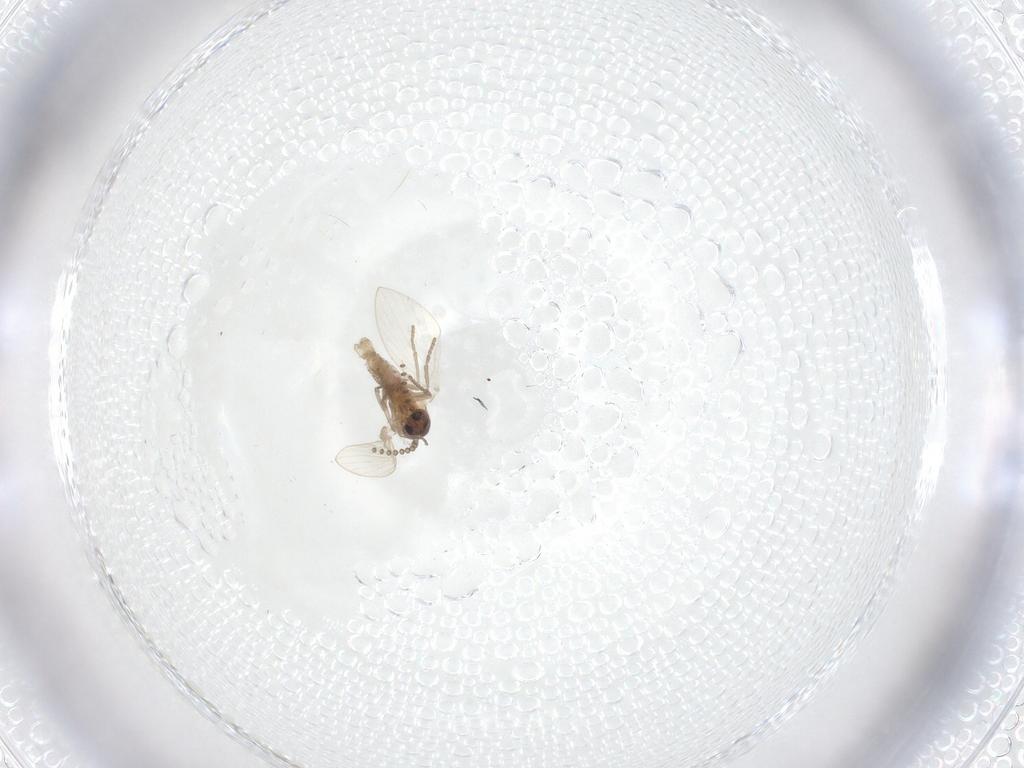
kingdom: Animalia
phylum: Arthropoda
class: Insecta
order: Diptera
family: Psychodidae
